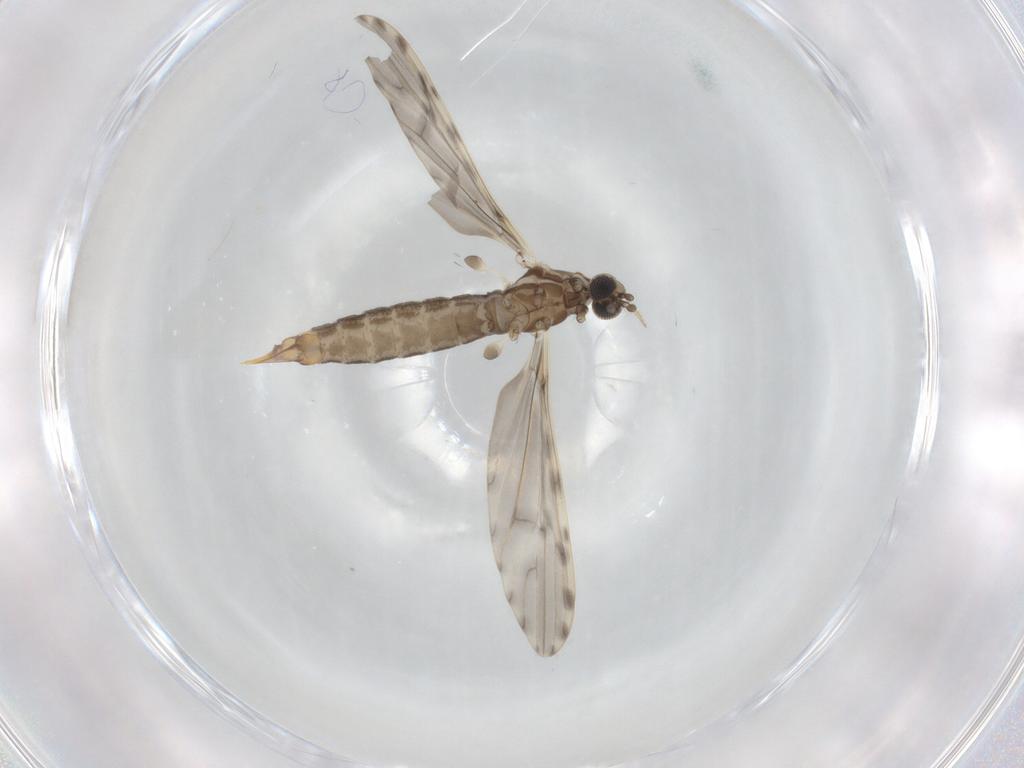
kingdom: Animalia
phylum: Arthropoda
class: Insecta
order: Diptera
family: Limoniidae
